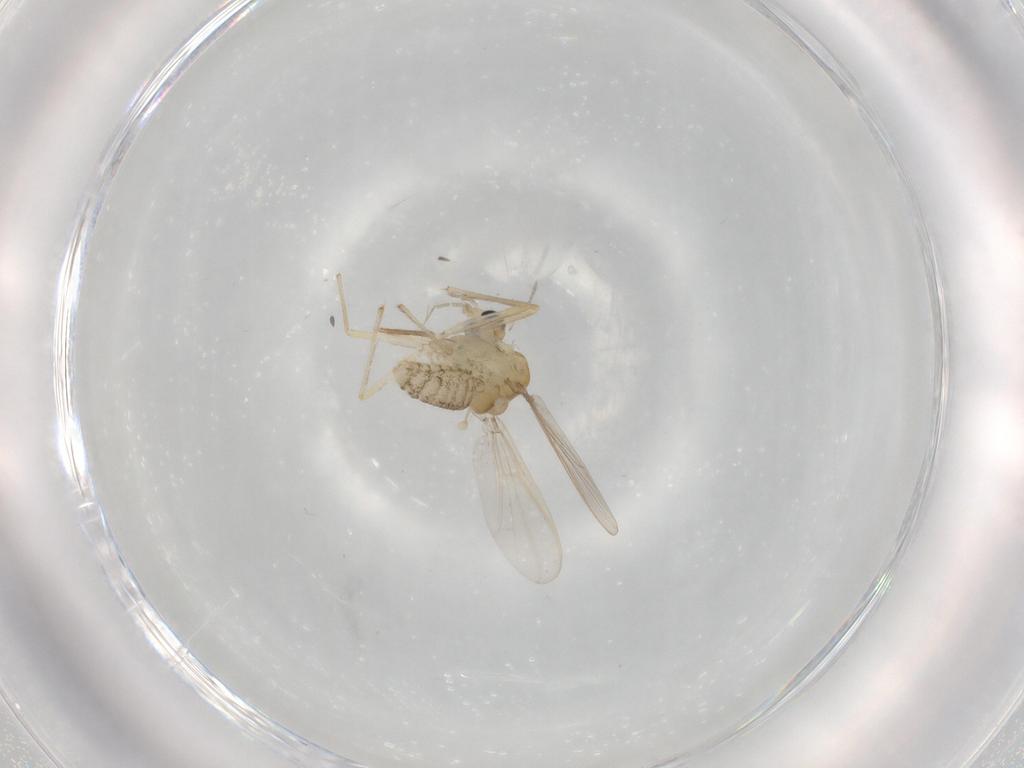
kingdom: Animalia
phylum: Arthropoda
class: Insecta
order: Diptera
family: Chironomidae
